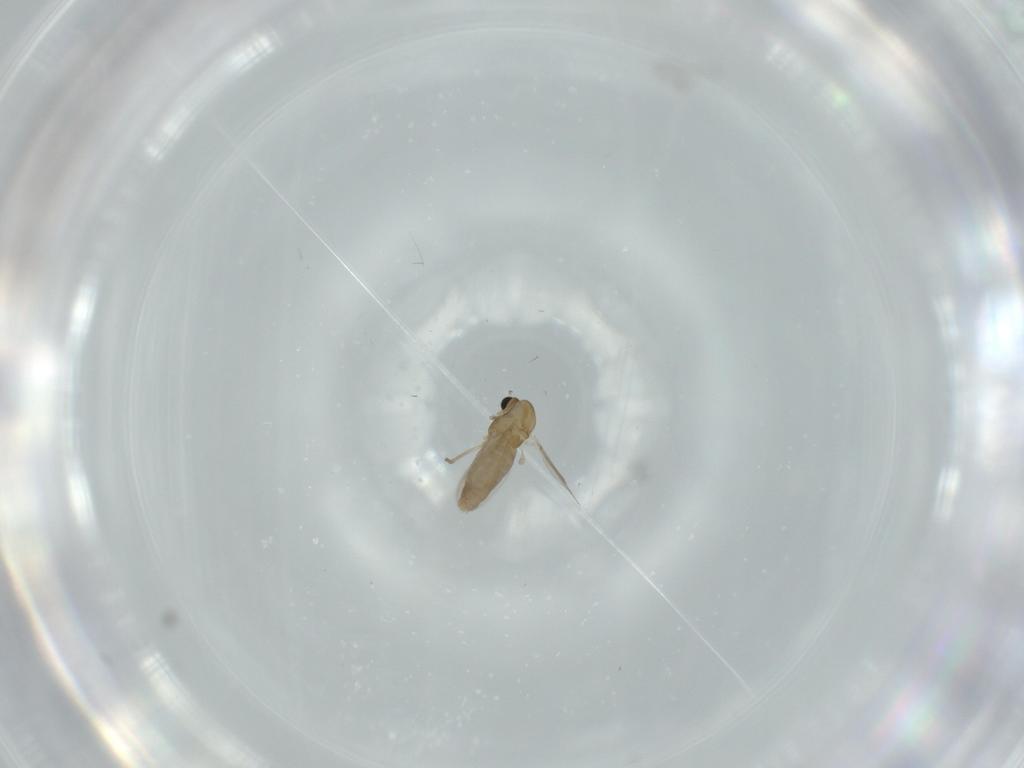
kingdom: Animalia
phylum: Arthropoda
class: Insecta
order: Diptera
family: Chironomidae
